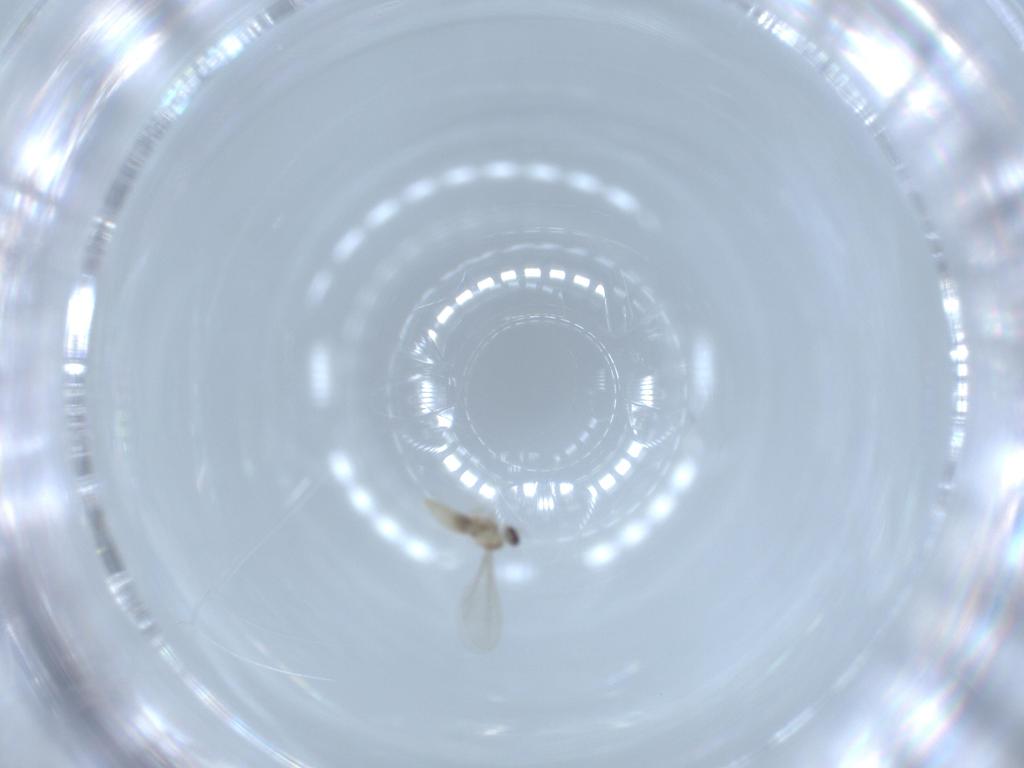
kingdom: Animalia
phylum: Arthropoda
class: Insecta
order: Diptera
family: Cecidomyiidae
